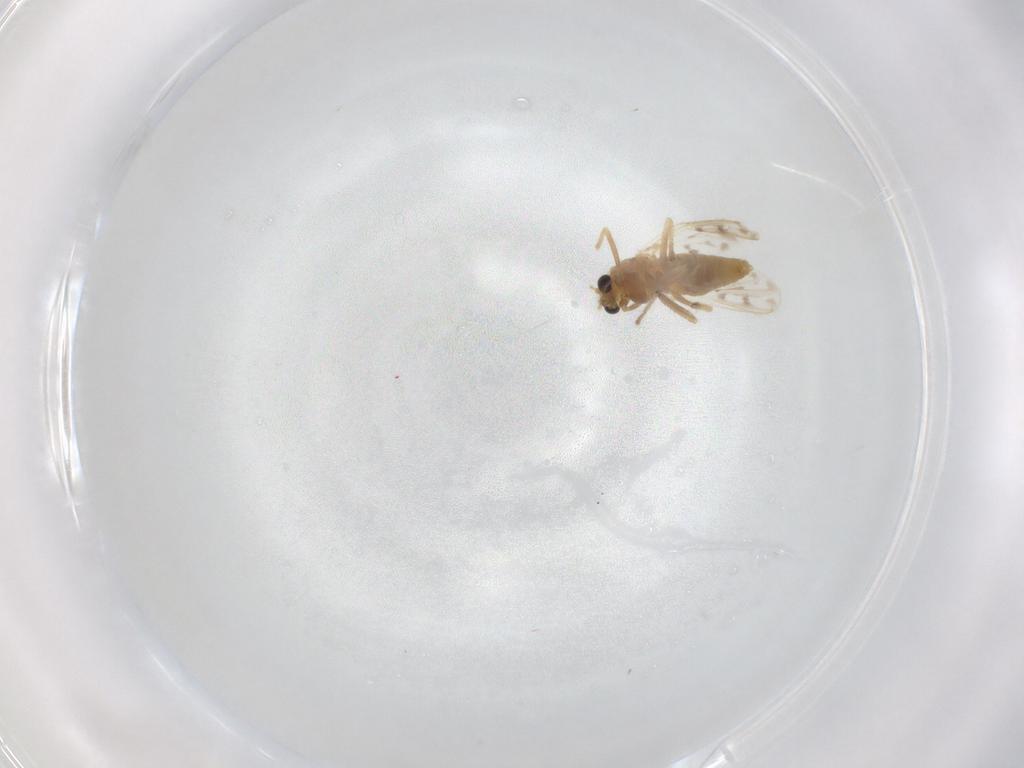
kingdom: Animalia
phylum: Arthropoda
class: Insecta
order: Diptera
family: Chironomidae
